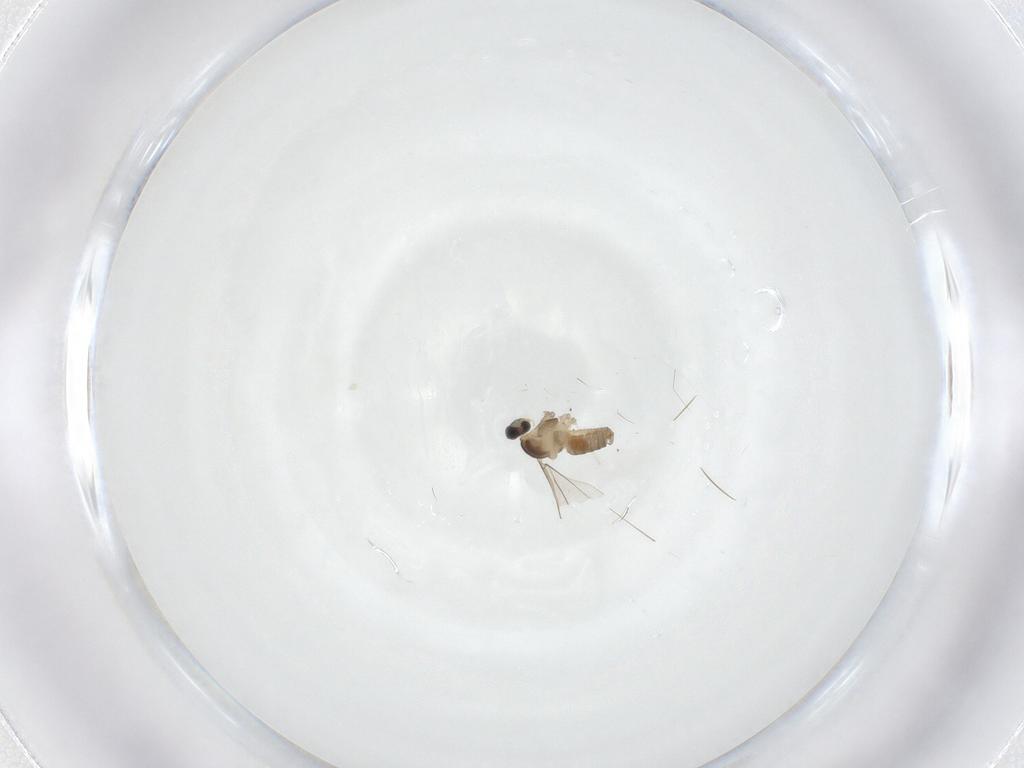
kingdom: Animalia
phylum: Arthropoda
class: Insecta
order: Diptera
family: Cecidomyiidae
